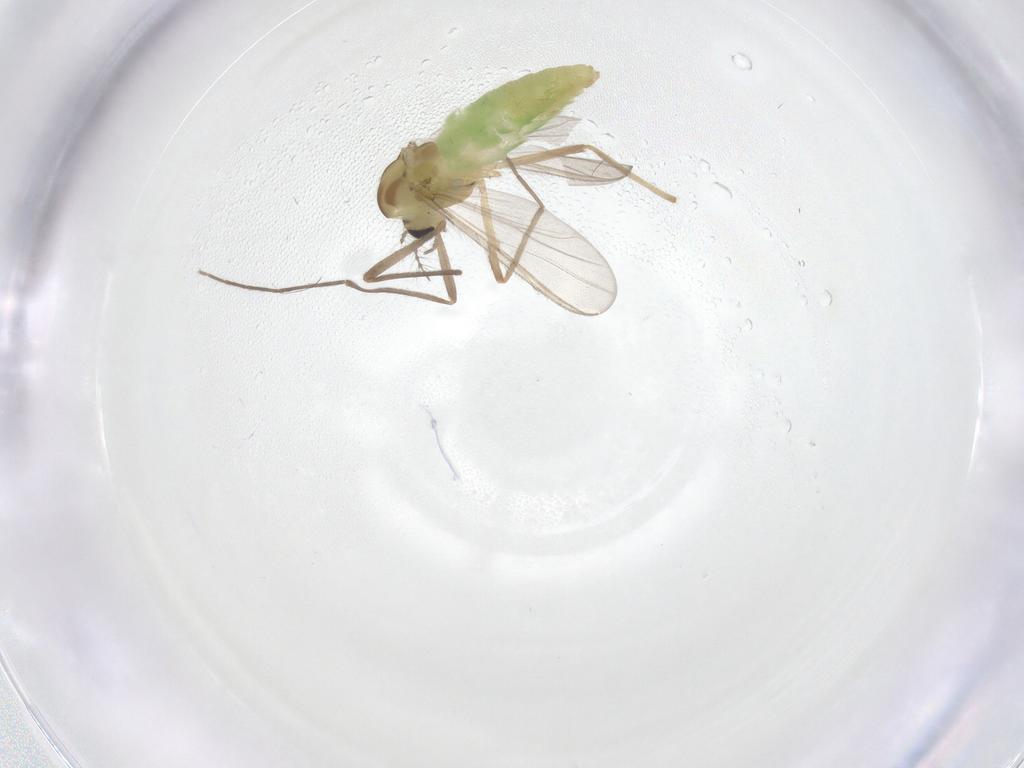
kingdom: Animalia
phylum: Arthropoda
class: Insecta
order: Diptera
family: Chironomidae
